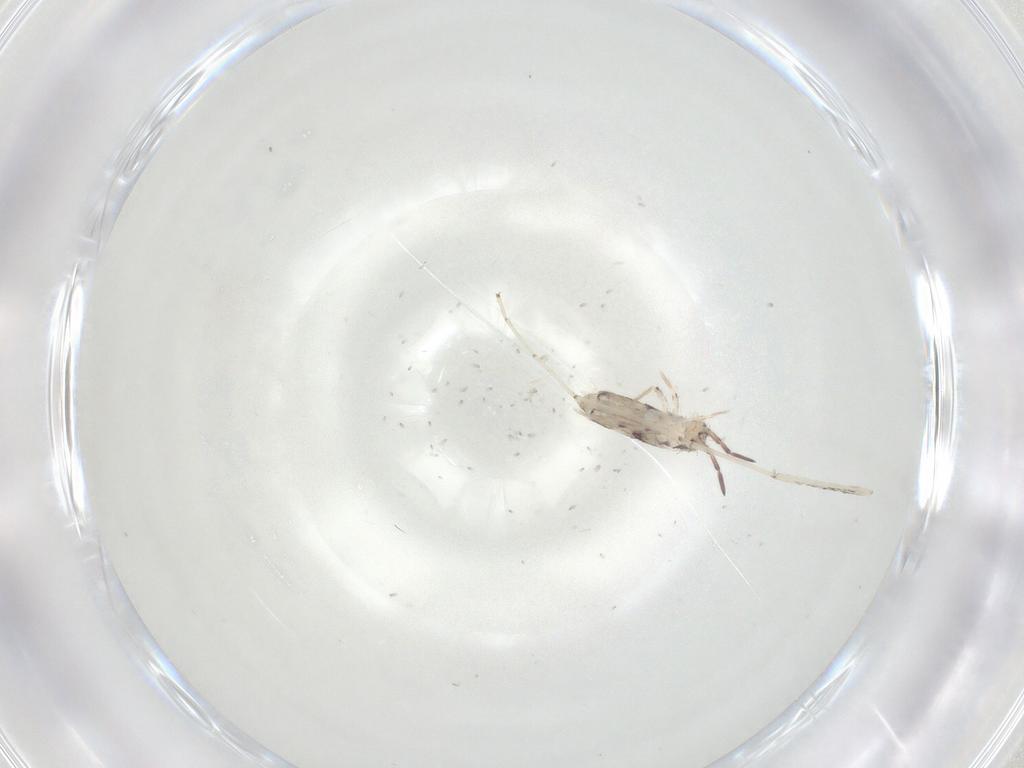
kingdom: Animalia
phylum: Arthropoda
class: Collembola
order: Entomobryomorpha
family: Entomobryidae
